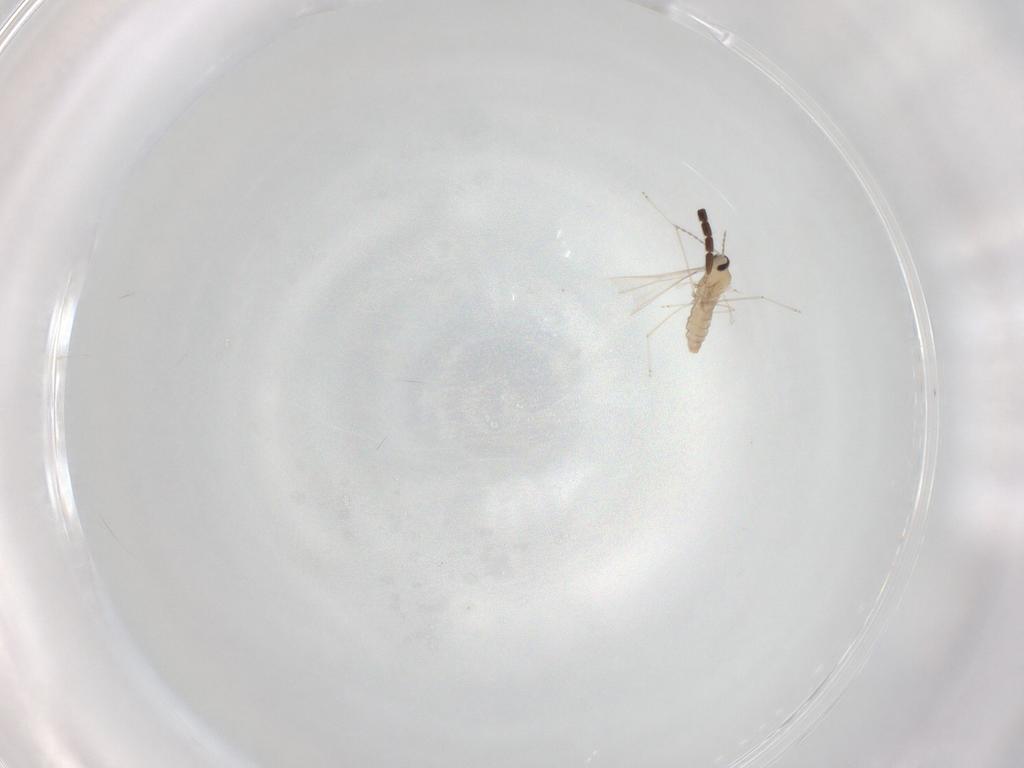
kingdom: Animalia
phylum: Arthropoda
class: Insecta
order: Diptera
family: Cecidomyiidae
